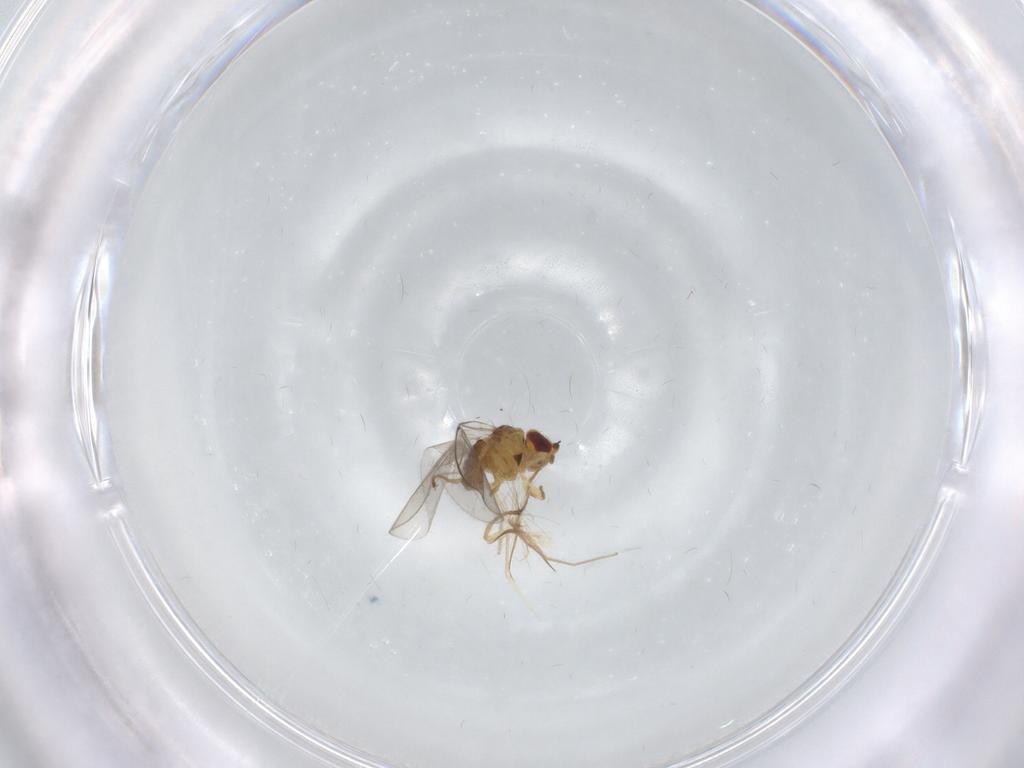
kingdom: Animalia
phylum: Arthropoda
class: Insecta
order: Diptera
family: Chloropidae
